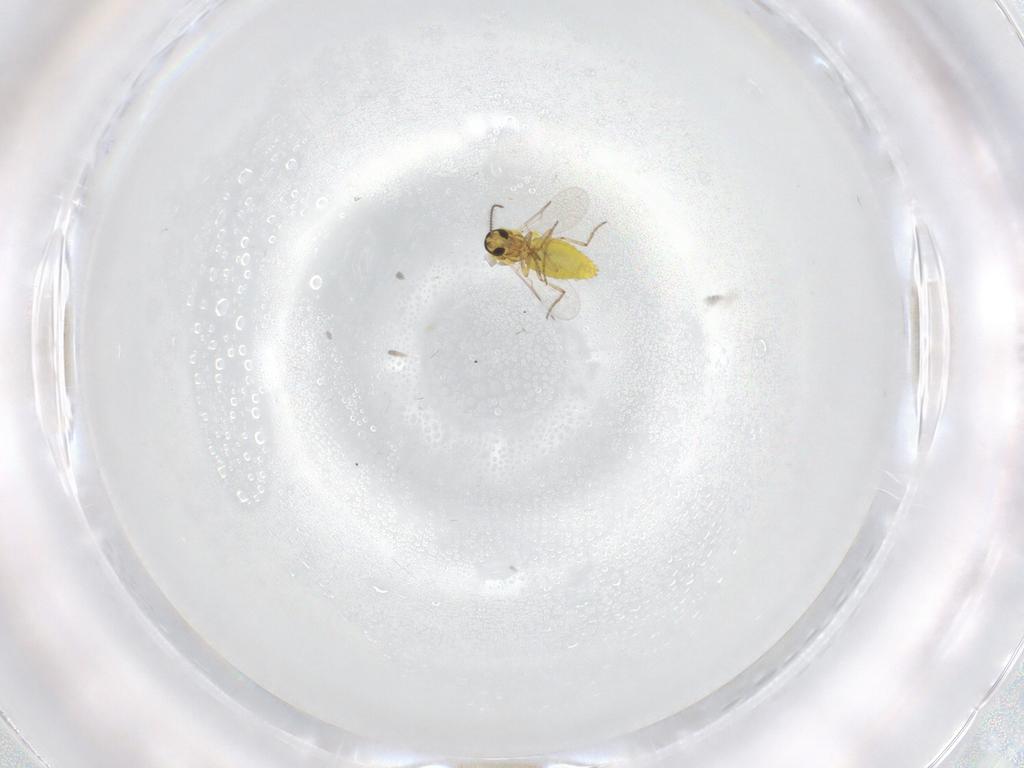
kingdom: Animalia
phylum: Arthropoda
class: Insecta
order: Diptera
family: Ceratopogonidae
